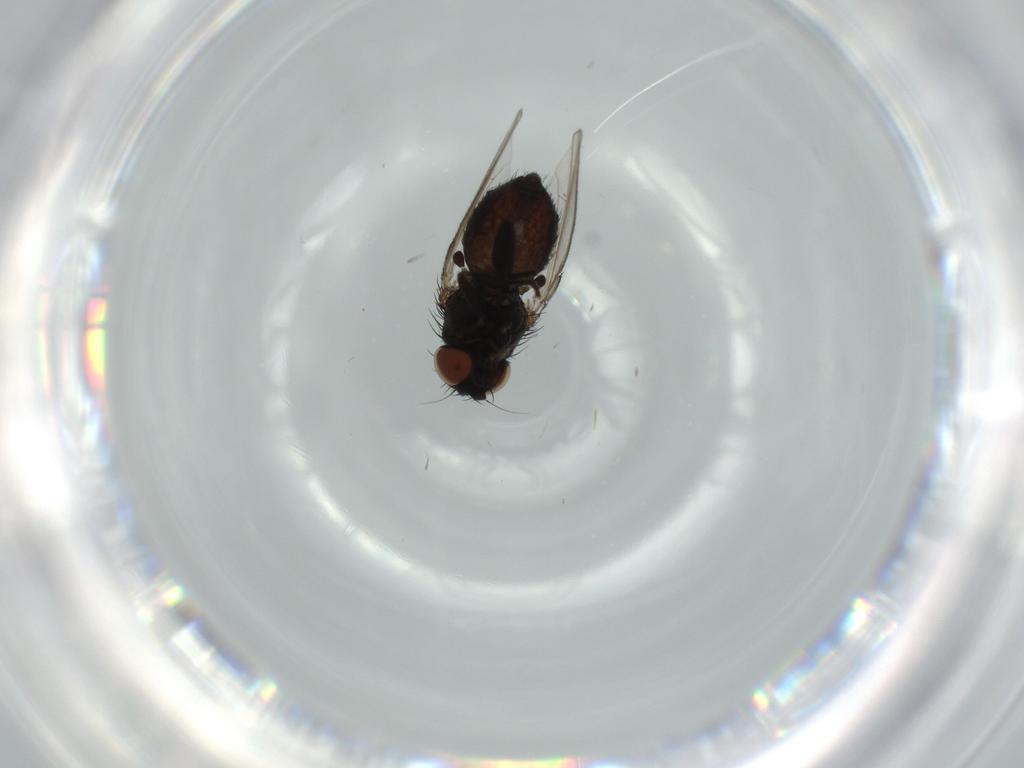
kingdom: Animalia
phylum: Arthropoda
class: Insecta
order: Diptera
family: Milichiidae
